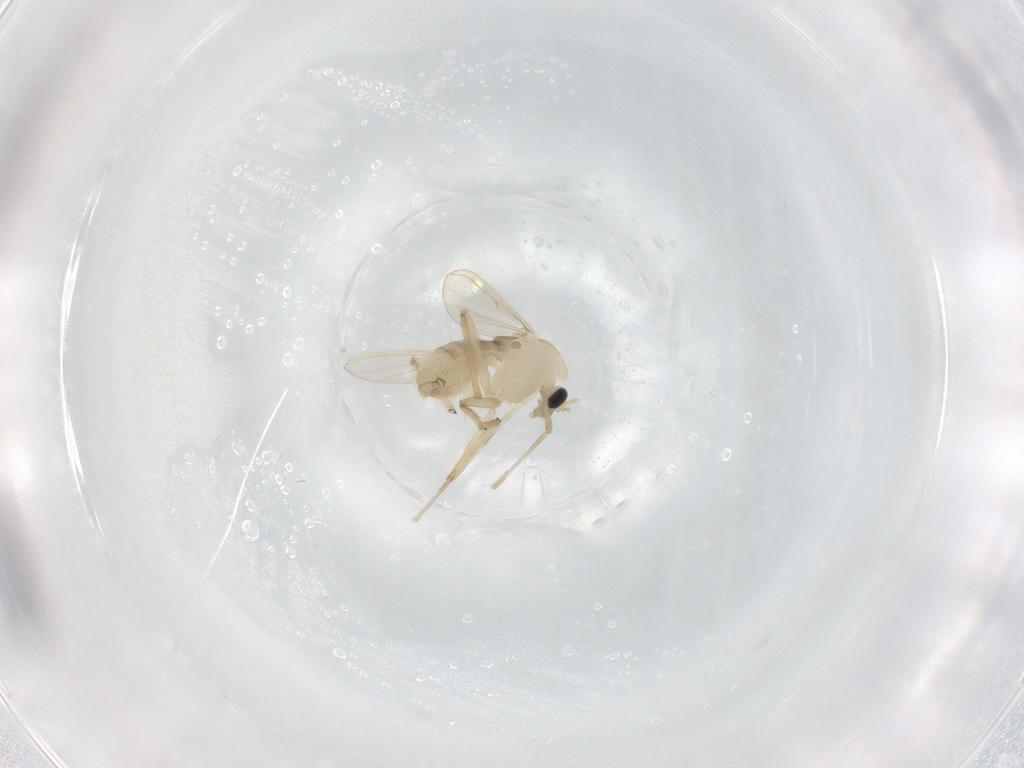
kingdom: Animalia
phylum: Arthropoda
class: Insecta
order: Diptera
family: Chironomidae
